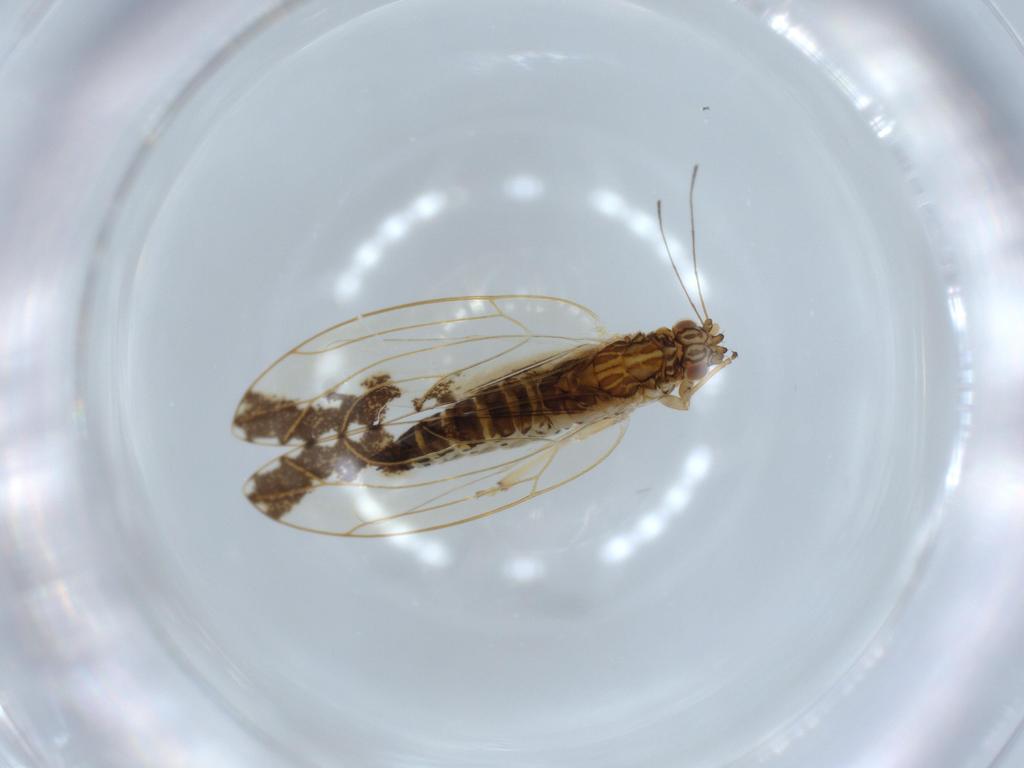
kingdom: Animalia
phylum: Arthropoda
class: Insecta
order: Hemiptera
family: Triozidae
